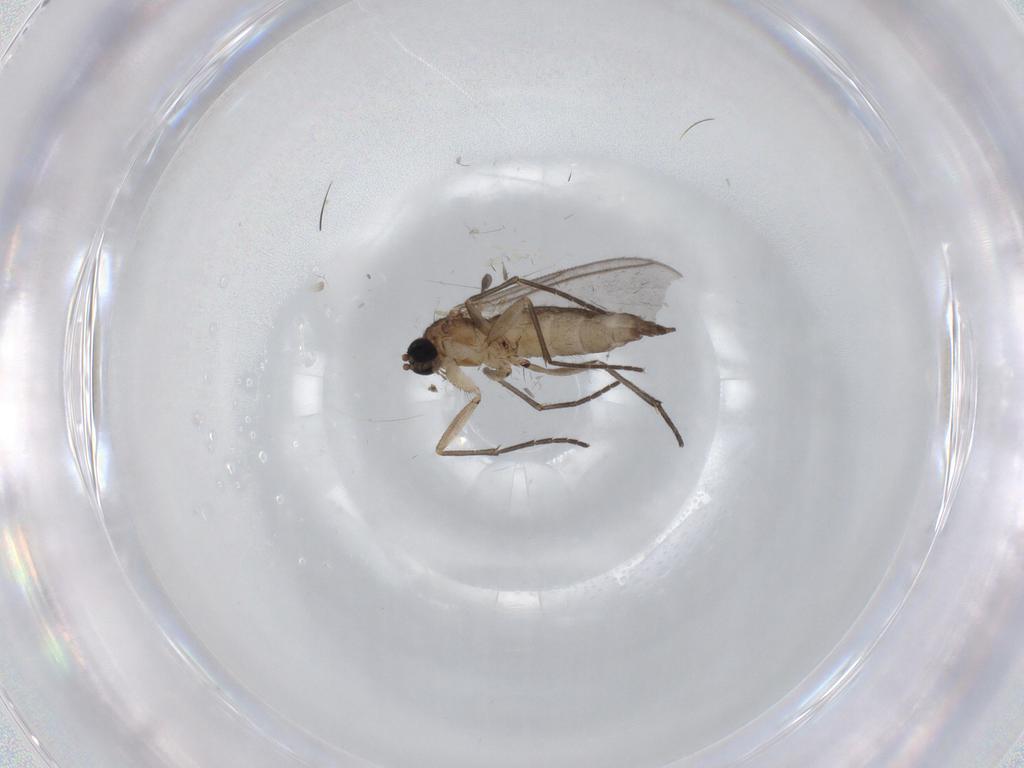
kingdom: Animalia
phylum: Arthropoda
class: Insecta
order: Diptera
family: Sciaridae
